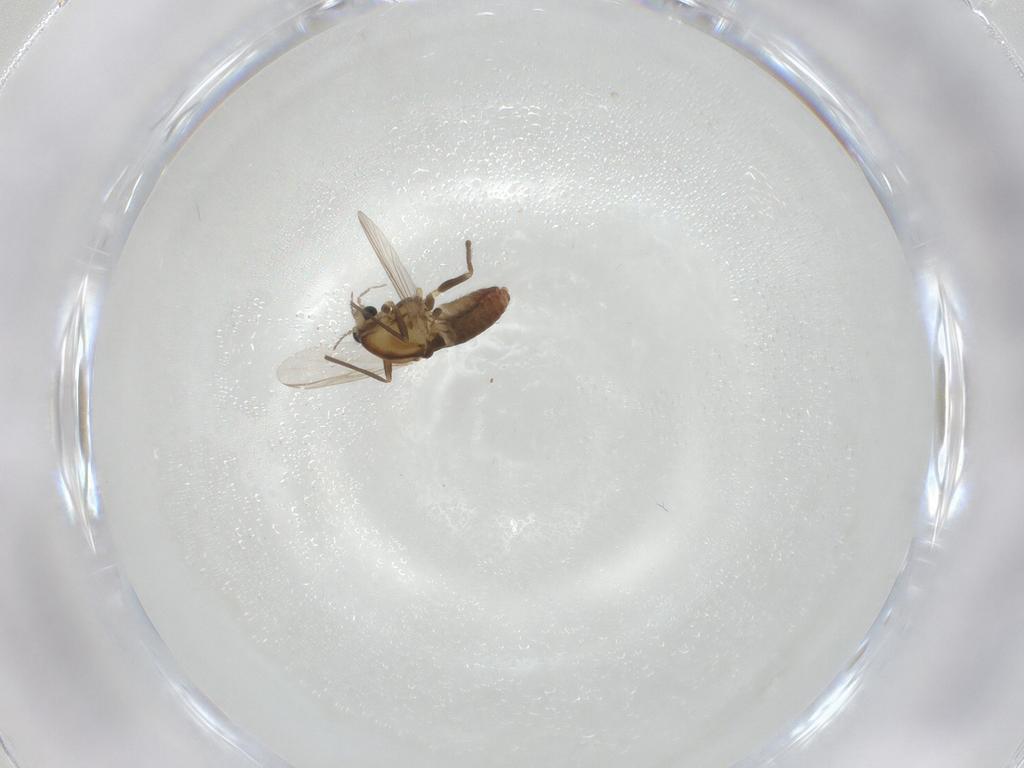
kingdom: Animalia
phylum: Arthropoda
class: Insecta
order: Diptera
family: Chironomidae
